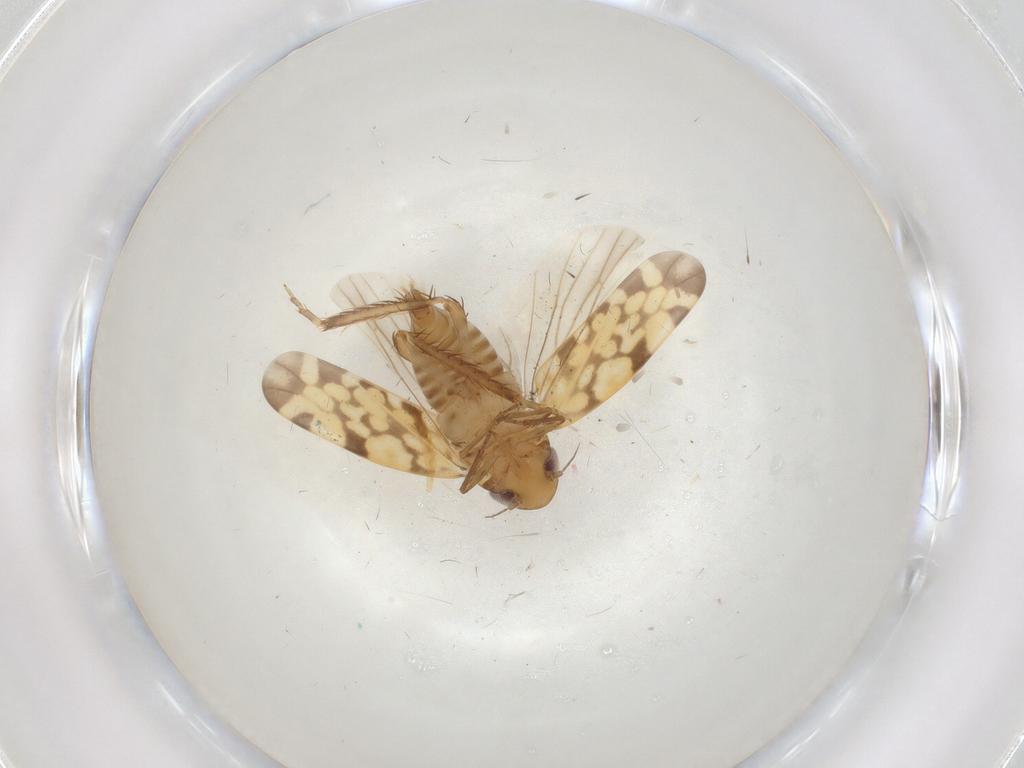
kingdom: Animalia
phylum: Arthropoda
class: Insecta
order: Hemiptera
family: Cicadellidae
